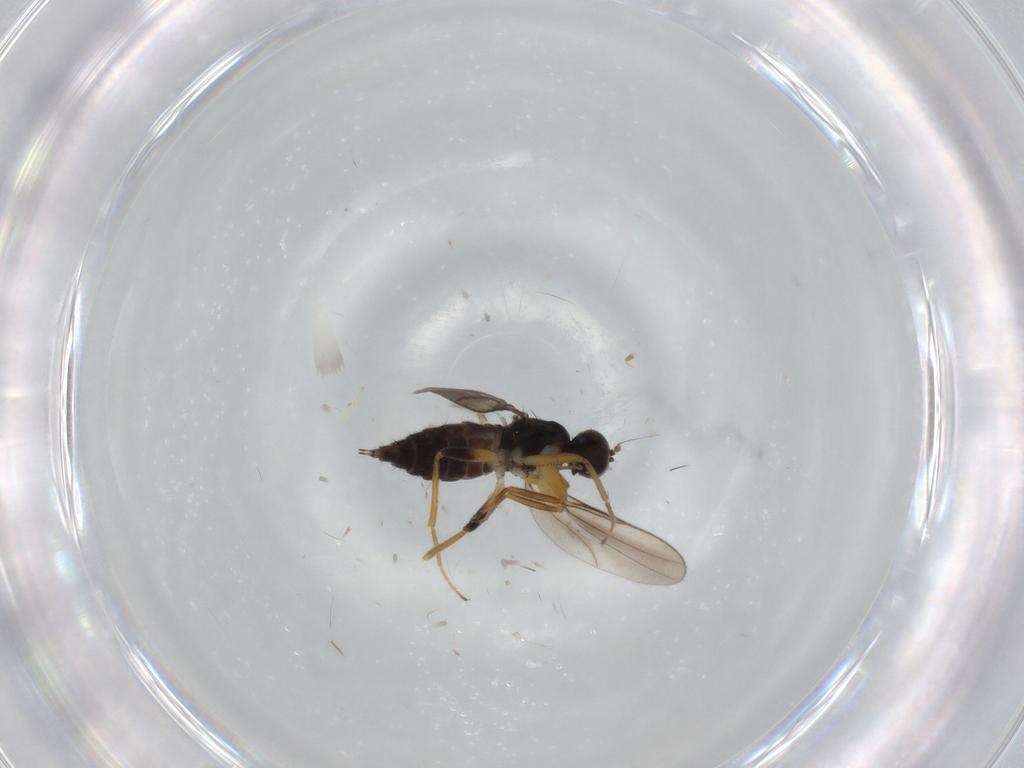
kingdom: Animalia
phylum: Arthropoda
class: Insecta
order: Diptera
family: Hybotidae
